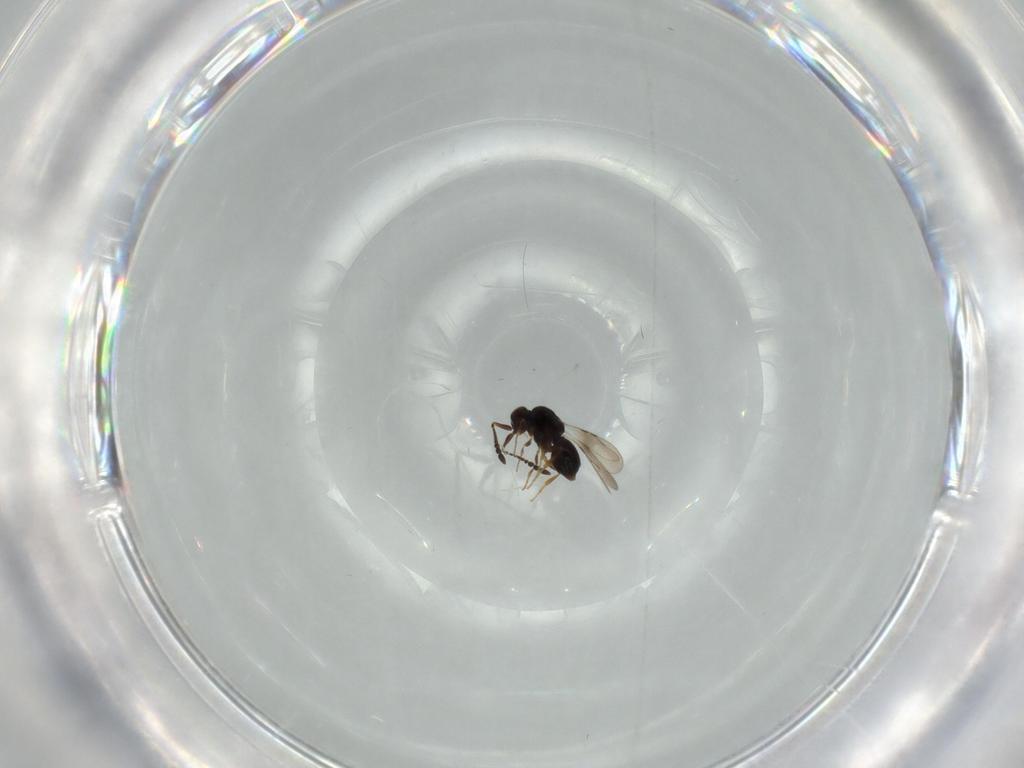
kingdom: Animalia
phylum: Arthropoda
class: Insecta
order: Hymenoptera
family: Ceraphronidae
